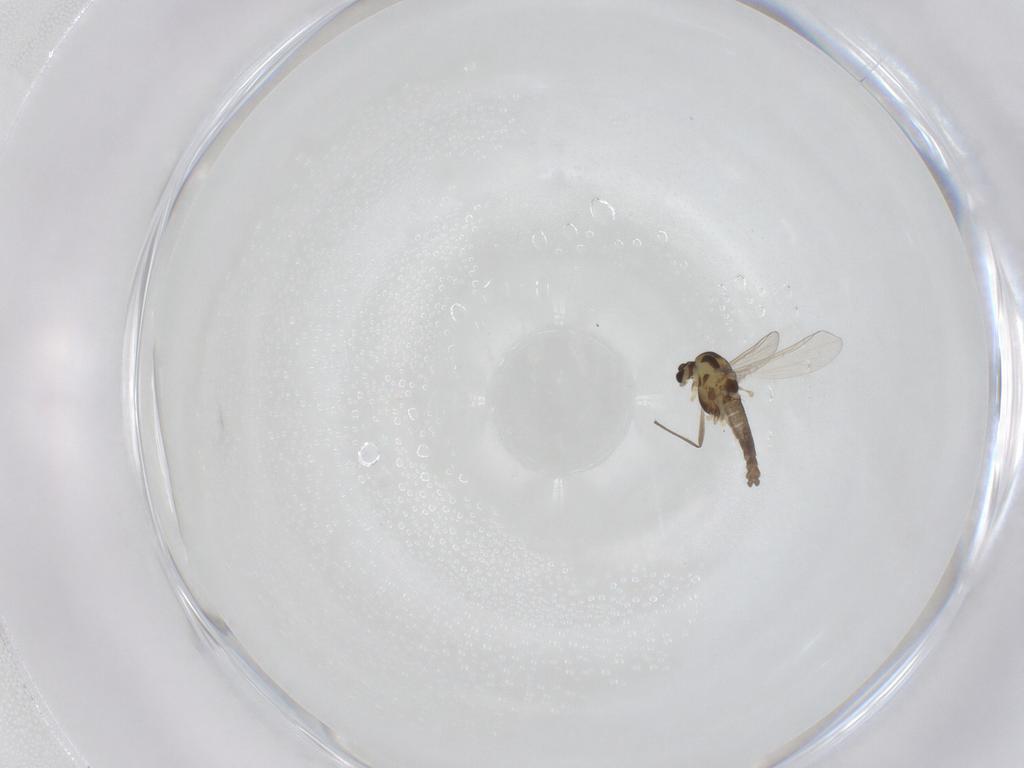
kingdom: Animalia
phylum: Arthropoda
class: Insecta
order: Diptera
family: Chironomidae
